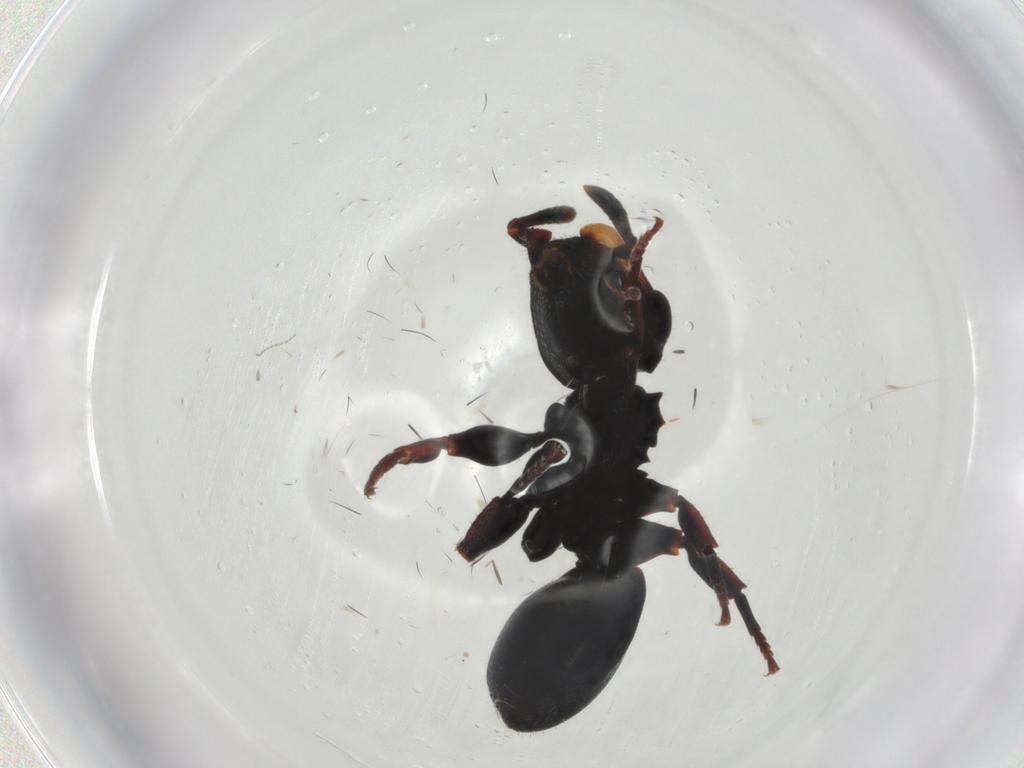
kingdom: Animalia
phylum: Arthropoda
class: Insecta
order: Hymenoptera
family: Formicidae
